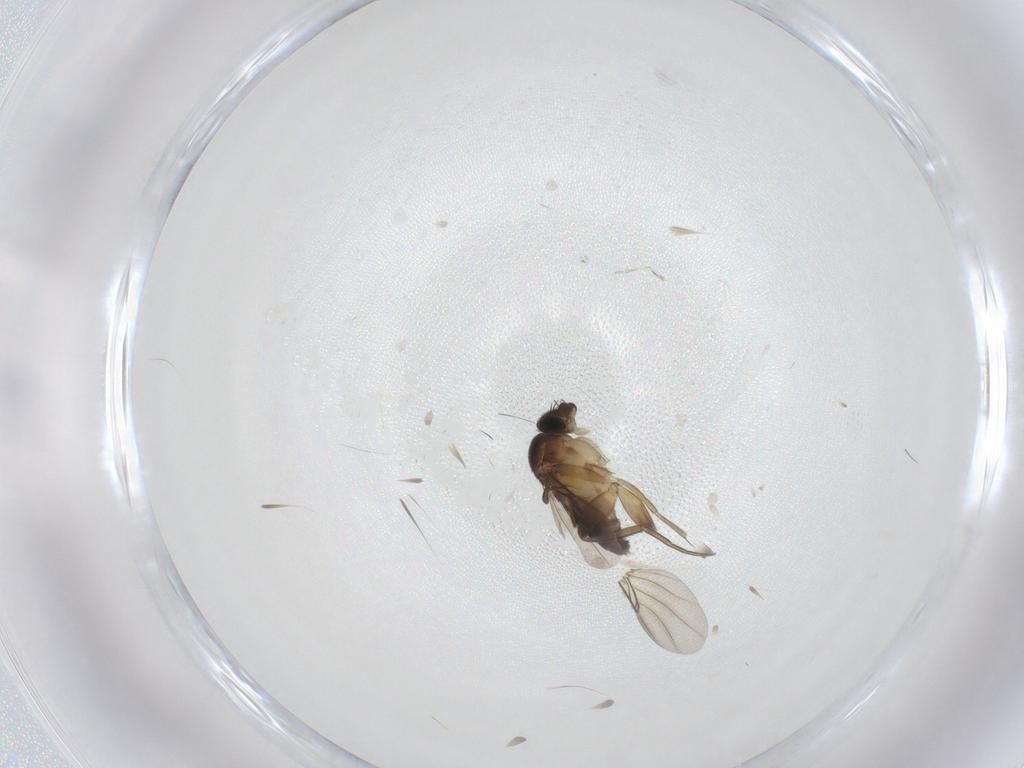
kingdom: Animalia
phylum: Arthropoda
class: Insecta
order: Diptera
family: Phoridae
